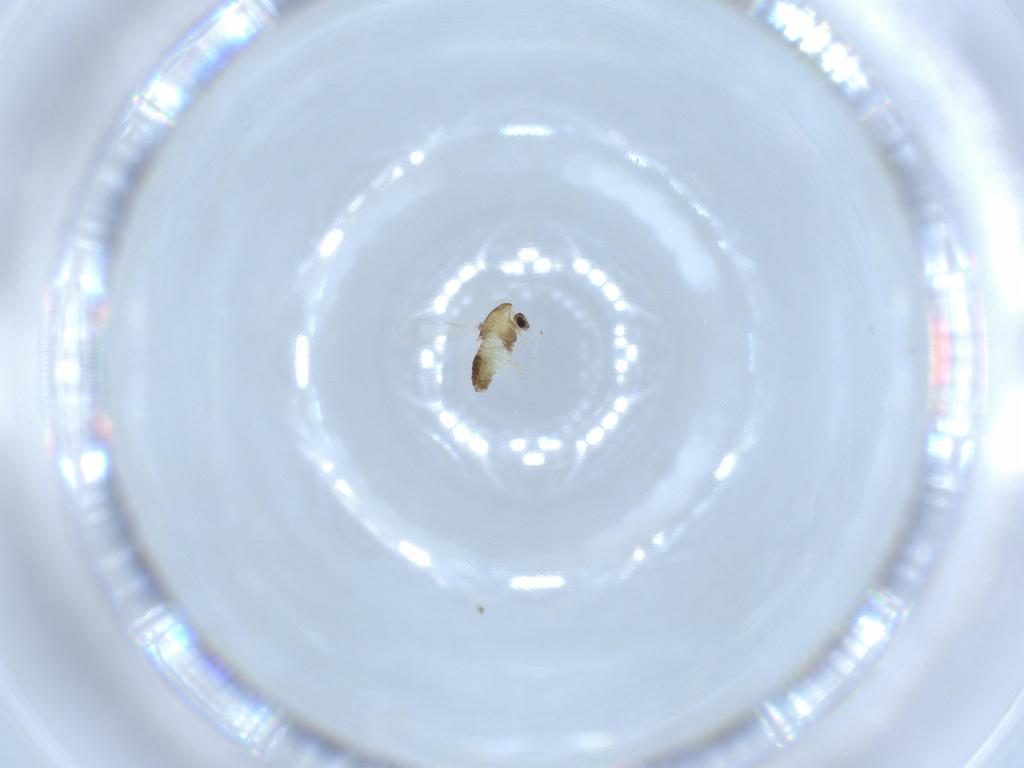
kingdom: Animalia
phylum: Arthropoda
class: Insecta
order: Diptera
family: Chironomidae
